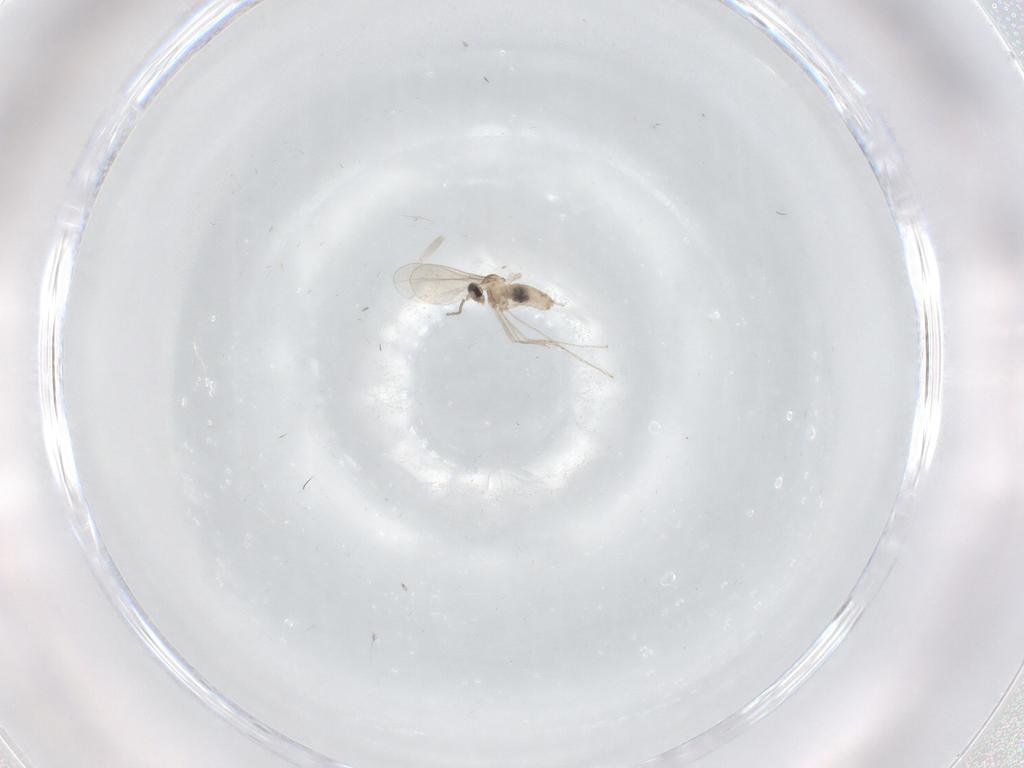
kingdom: Animalia
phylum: Arthropoda
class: Insecta
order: Diptera
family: Cecidomyiidae
